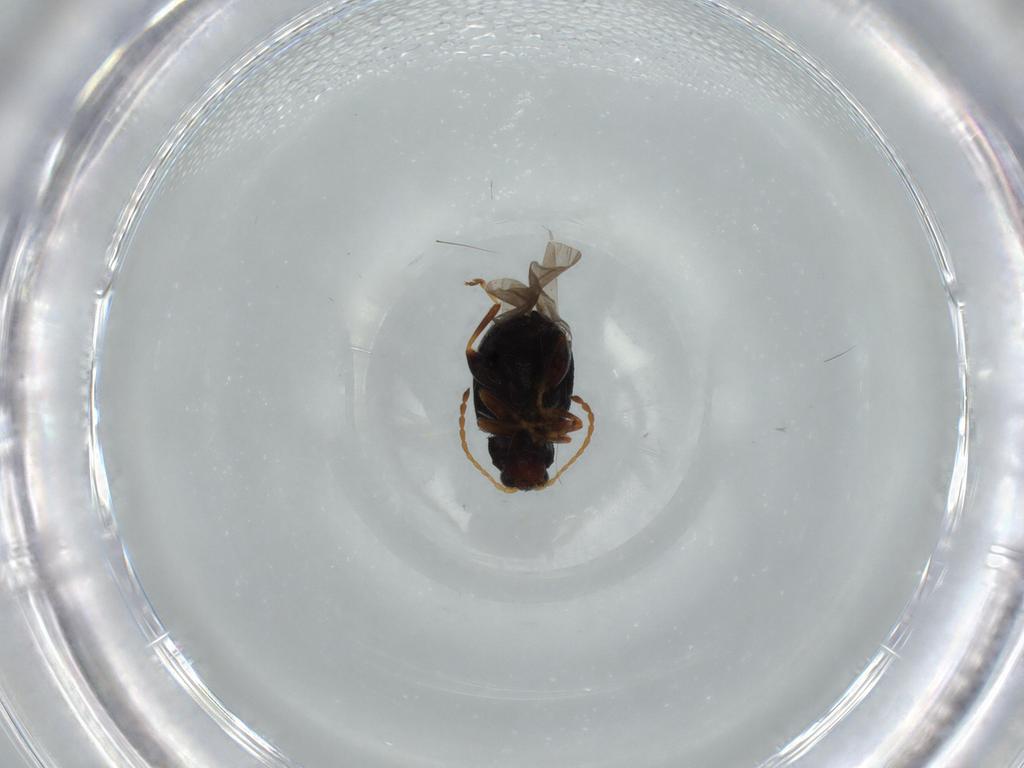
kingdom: Animalia
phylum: Arthropoda
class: Insecta
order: Coleoptera
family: Chrysomelidae
